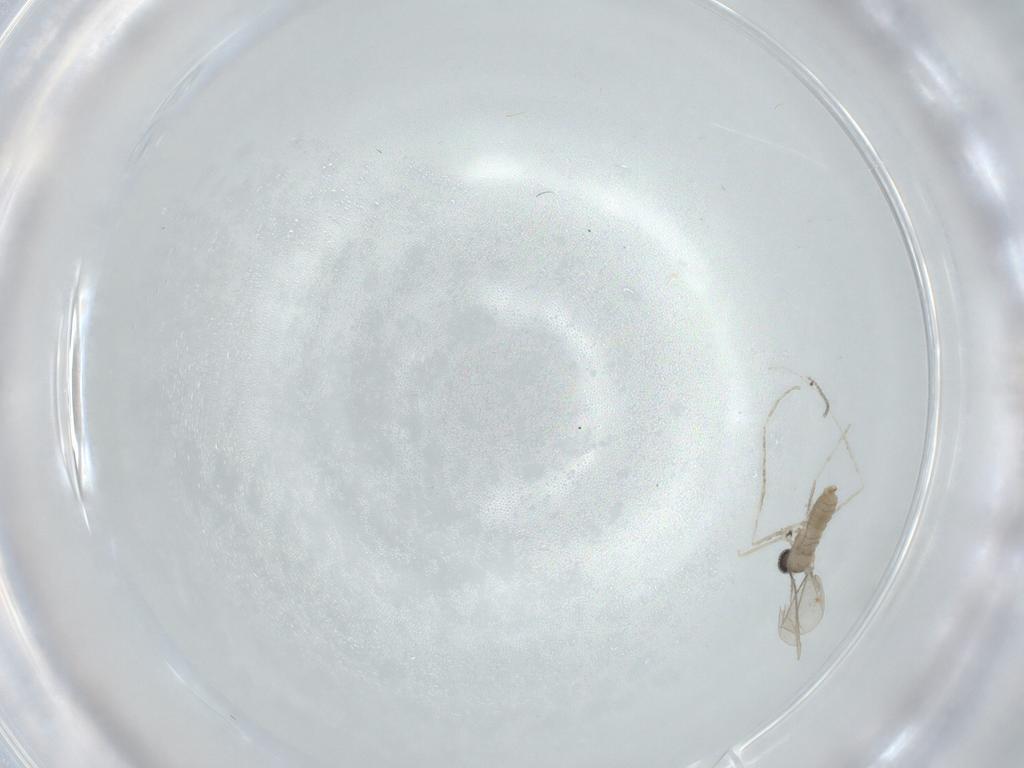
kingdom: Animalia
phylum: Arthropoda
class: Insecta
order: Diptera
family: Cecidomyiidae
